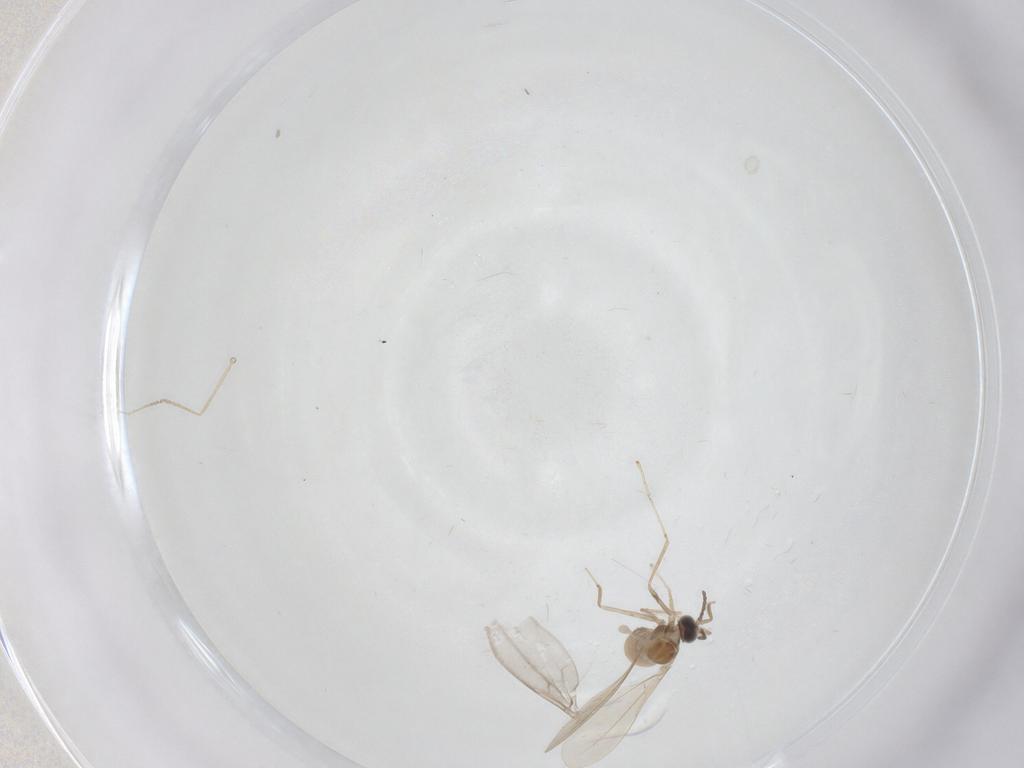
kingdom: Animalia
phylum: Arthropoda
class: Insecta
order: Diptera
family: Cecidomyiidae
